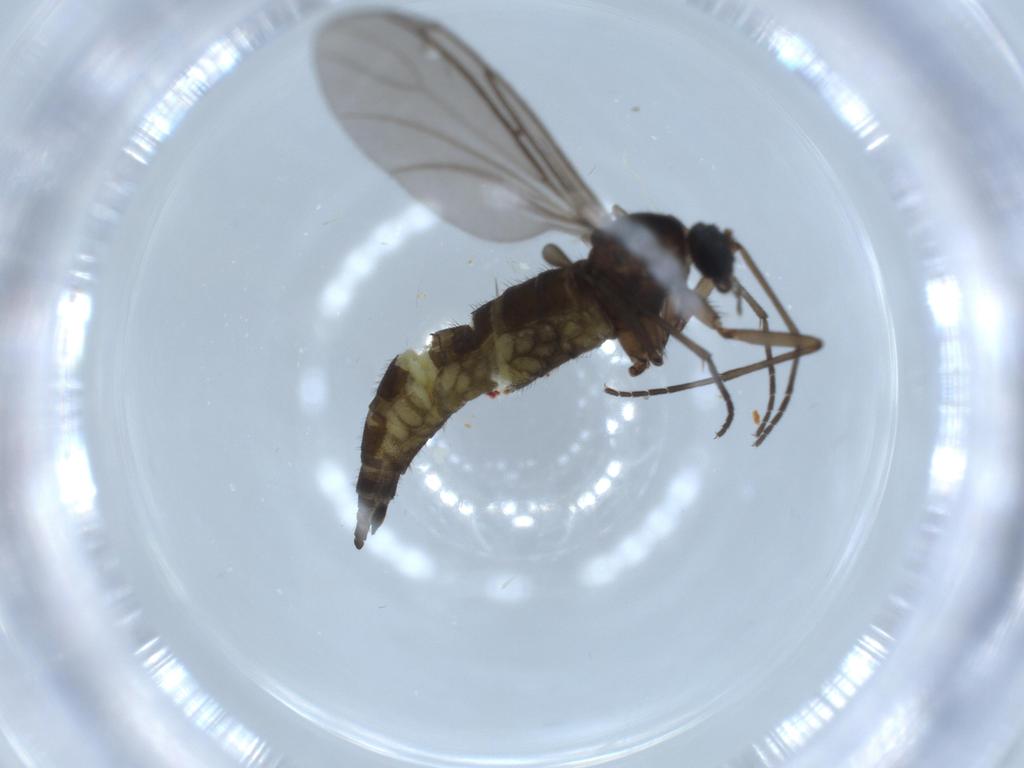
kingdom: Animalia
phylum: Arthropoda
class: Insecta
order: Diptera
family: Sciaridae
